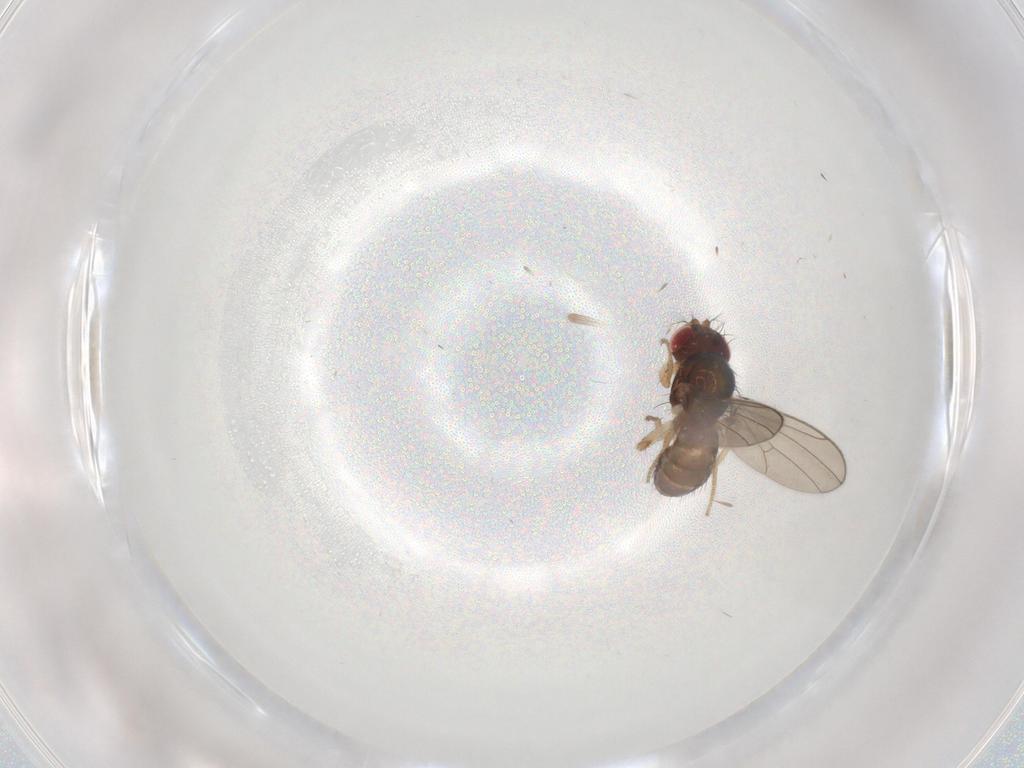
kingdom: Animalia
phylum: Arthropoda
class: Insecta
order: Diptera
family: Drosophilidae
